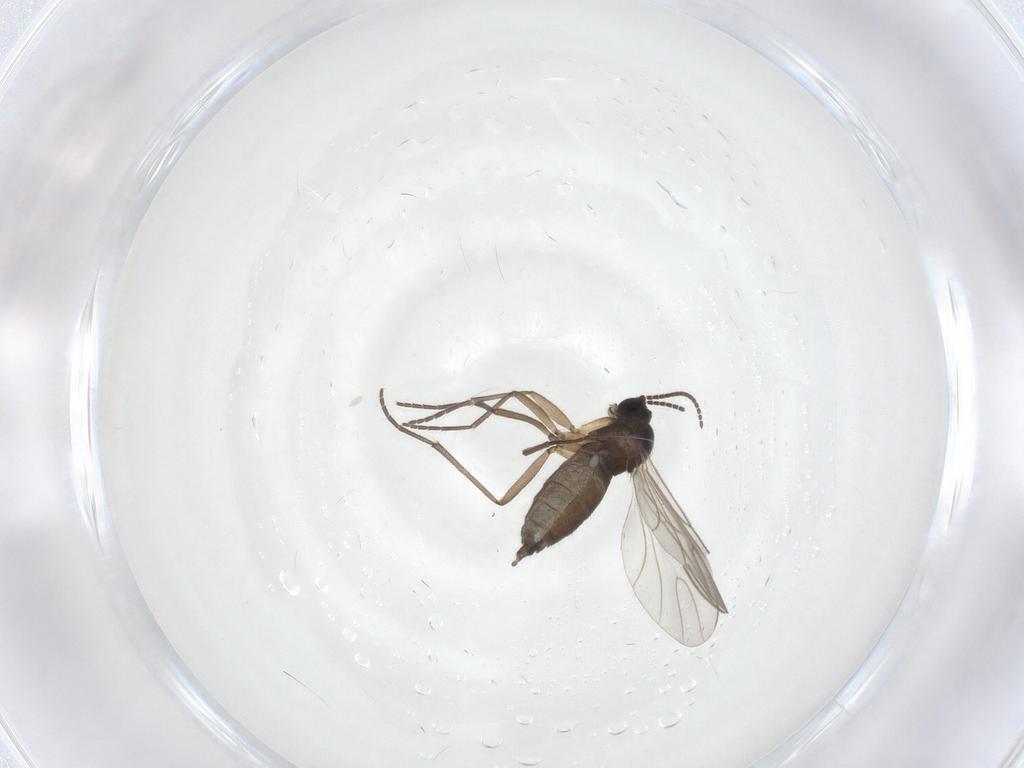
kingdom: Animalia
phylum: Arthropoda
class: Insecta
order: Diptera
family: Sciaridae
